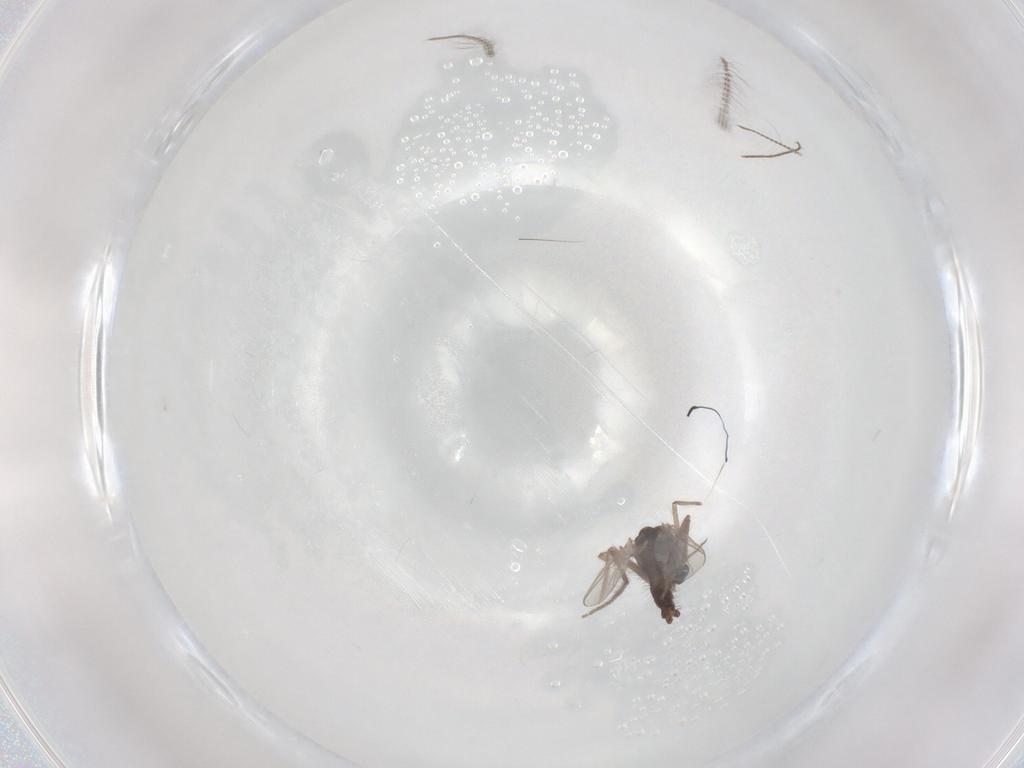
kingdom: Animalia
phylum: Arthropoda
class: Insecta
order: Diptera
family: Chironomidae
